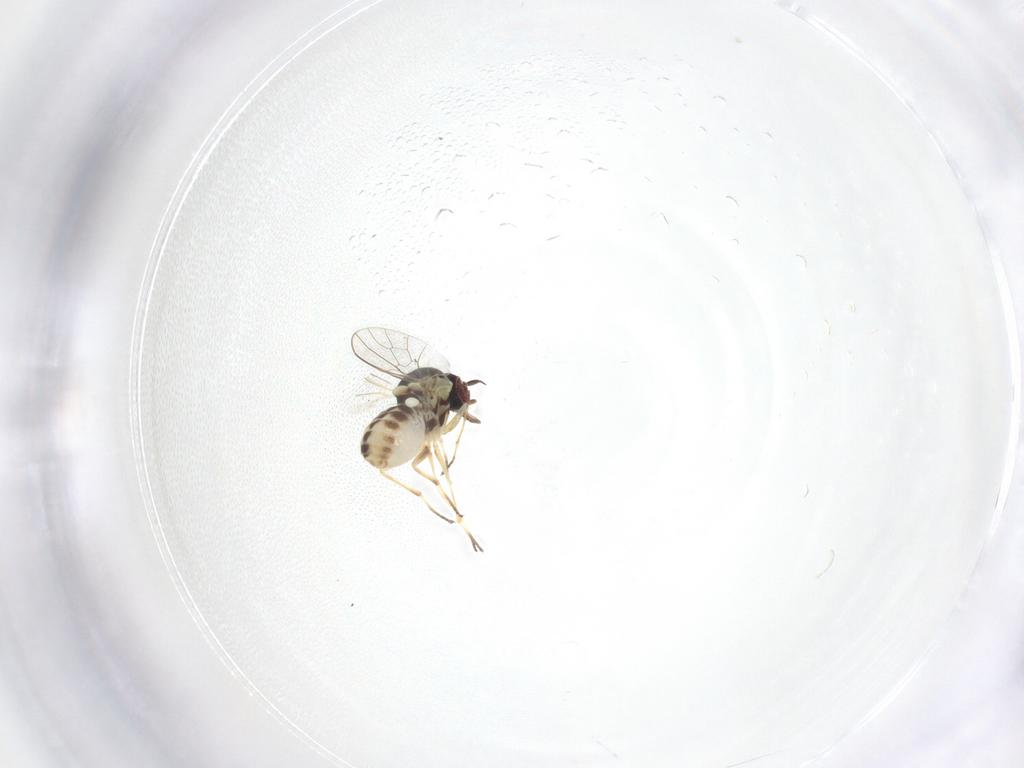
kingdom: Animalia
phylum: Arthropoda
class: Insecta
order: Diptera
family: Bombyliidae
